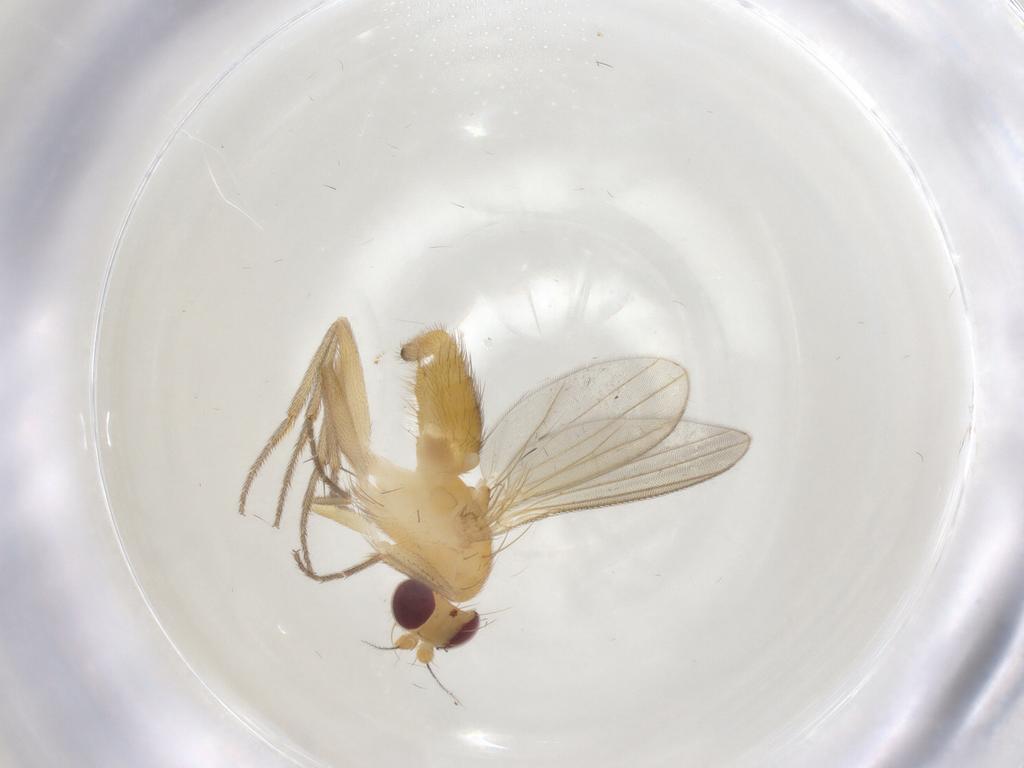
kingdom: Animalia
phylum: Arthropoda
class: Insecta
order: Diptera
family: Clusiidae
